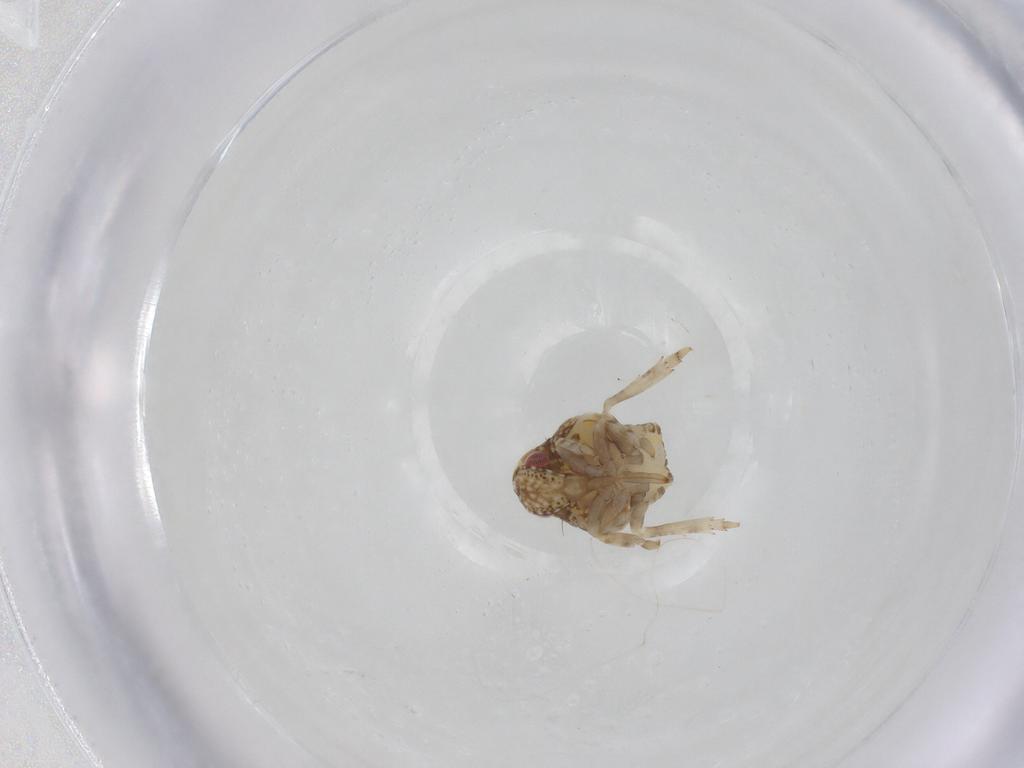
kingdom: Animalia
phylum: Arthropoda
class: Insecta
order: Hemiptera
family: Acanaloniidae
